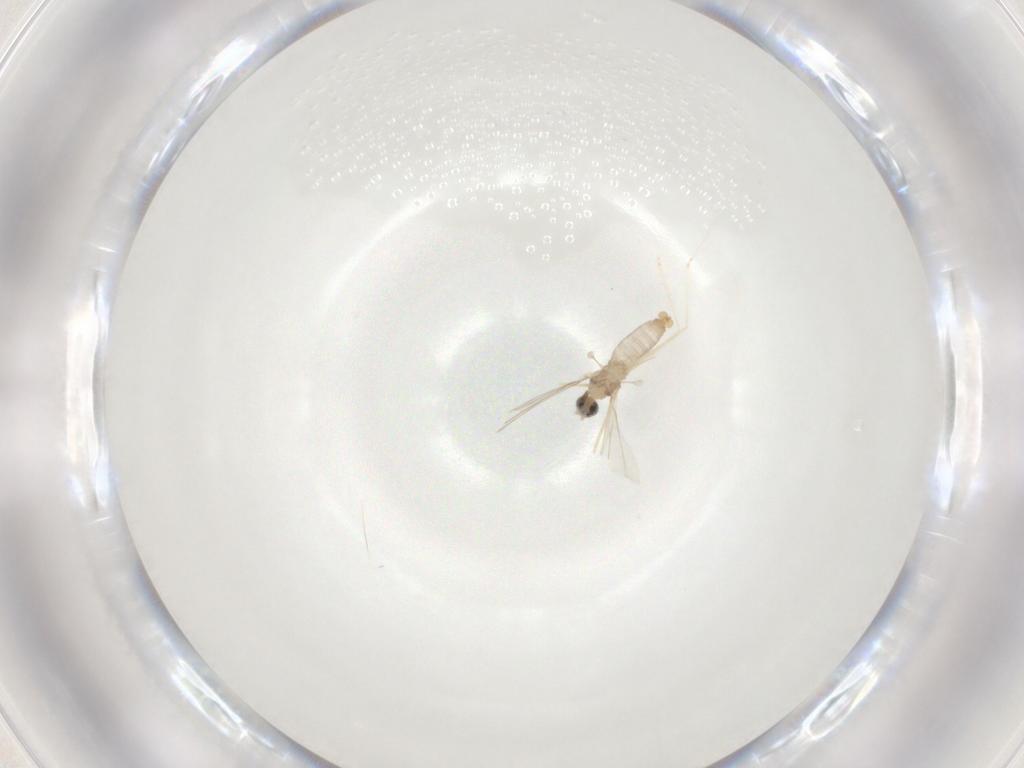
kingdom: Animalia
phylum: Arthropoda
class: Insecta
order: Diptera
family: Cecidomyiidae
